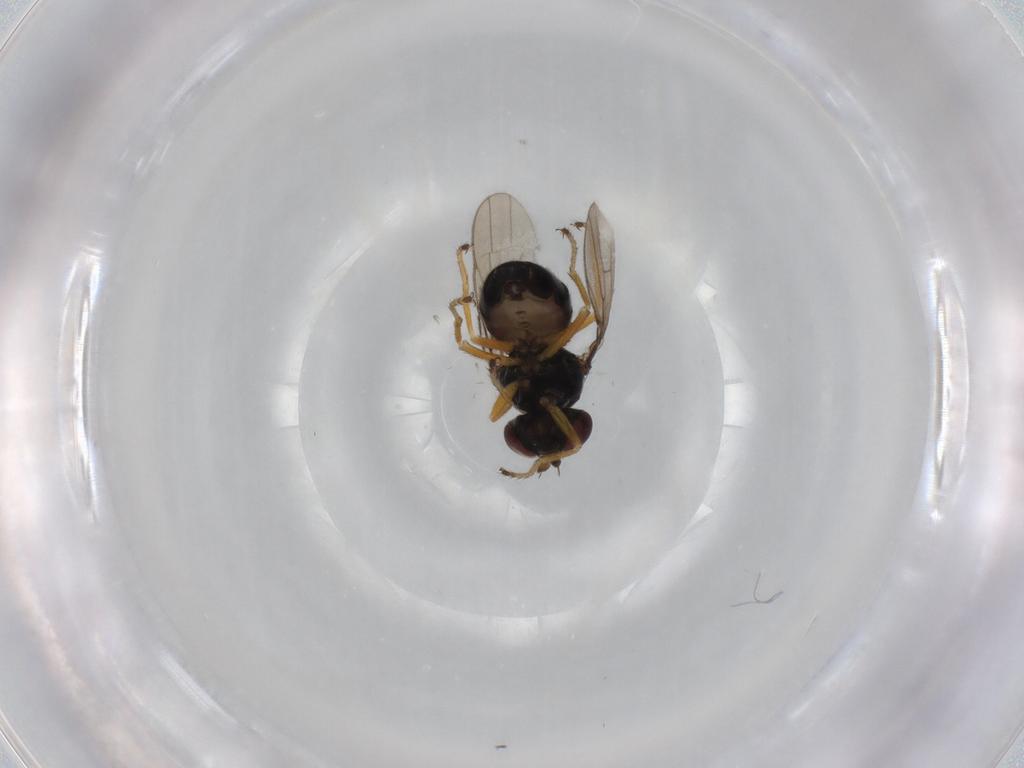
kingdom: Animalia
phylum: Arthropoda
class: Insecta
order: Diptera
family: Ephydridae
